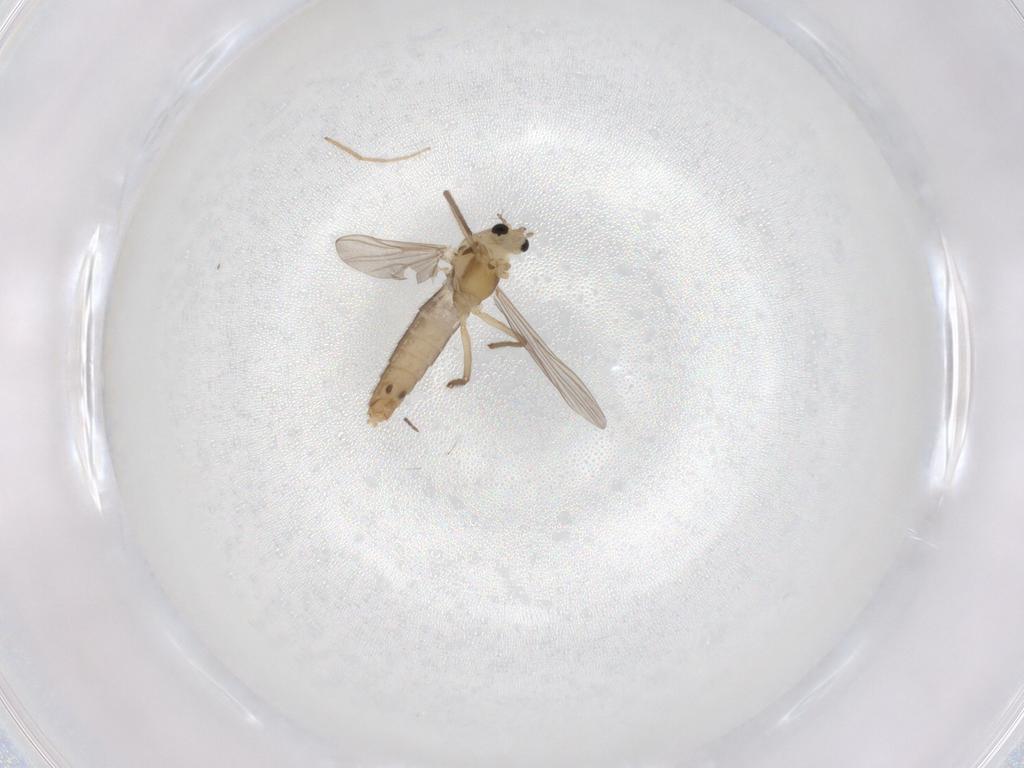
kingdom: Animalia
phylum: Arthropoda
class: Insecta
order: Diptera
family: Chironomidae
